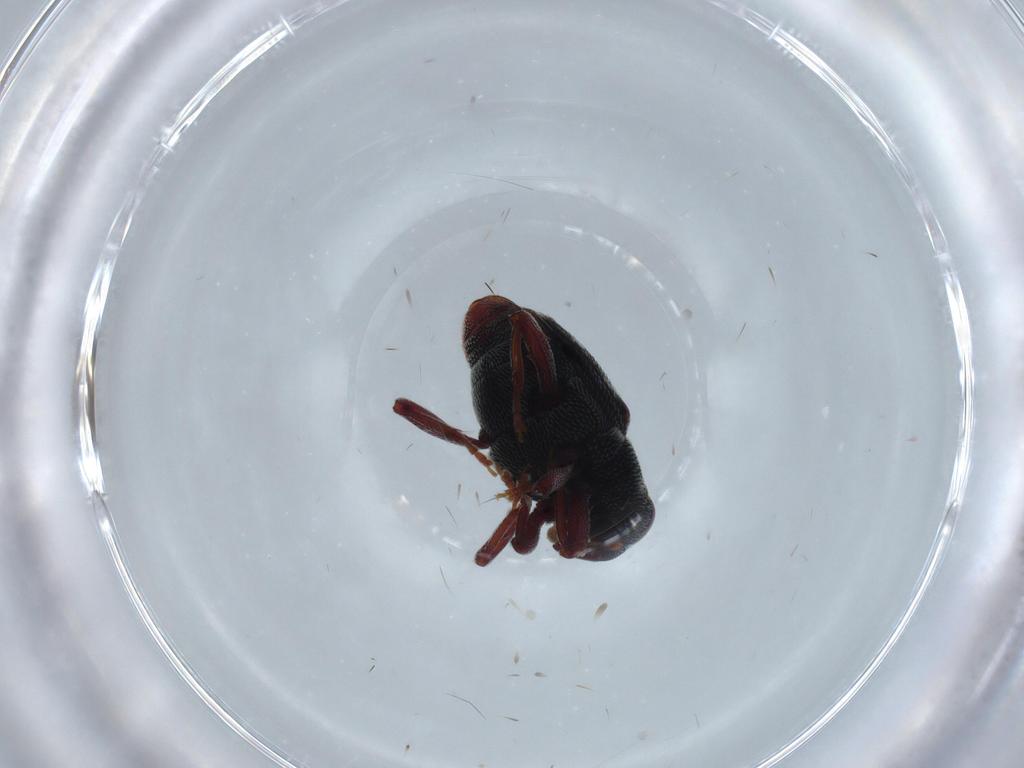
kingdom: Animalia
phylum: Arthropoda
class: Insecta
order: Coleoptera
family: Chrysomelidae
